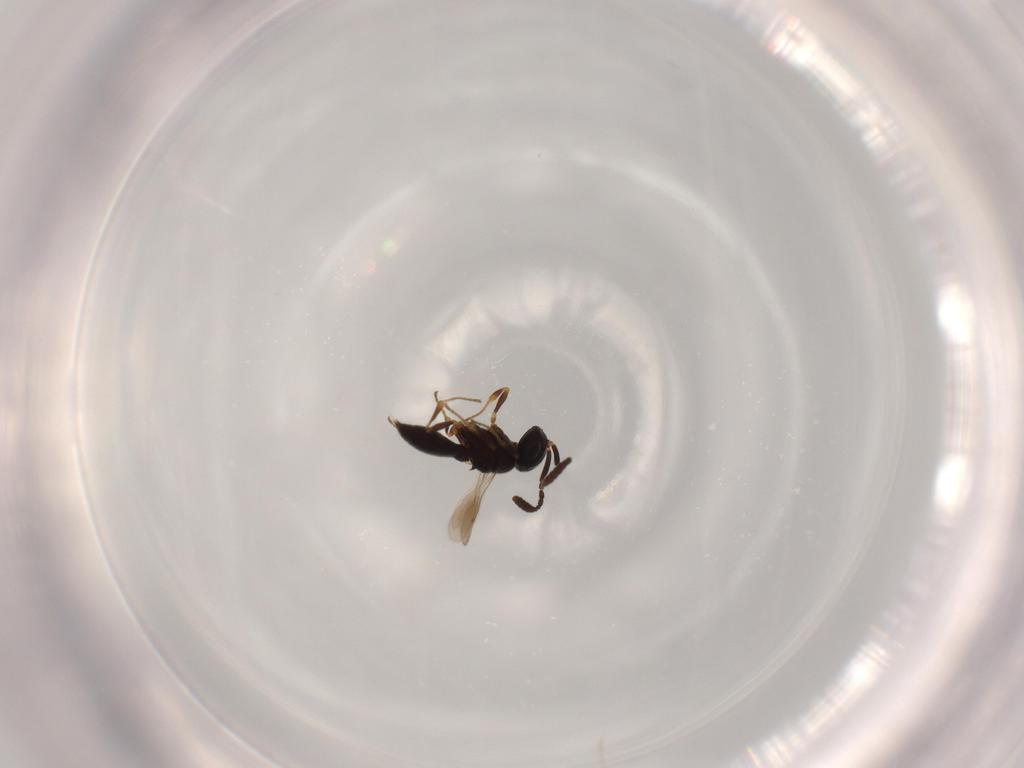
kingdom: Animalia
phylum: Arthropoda
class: Insecta
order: Hymenoptera
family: Scelionidae
